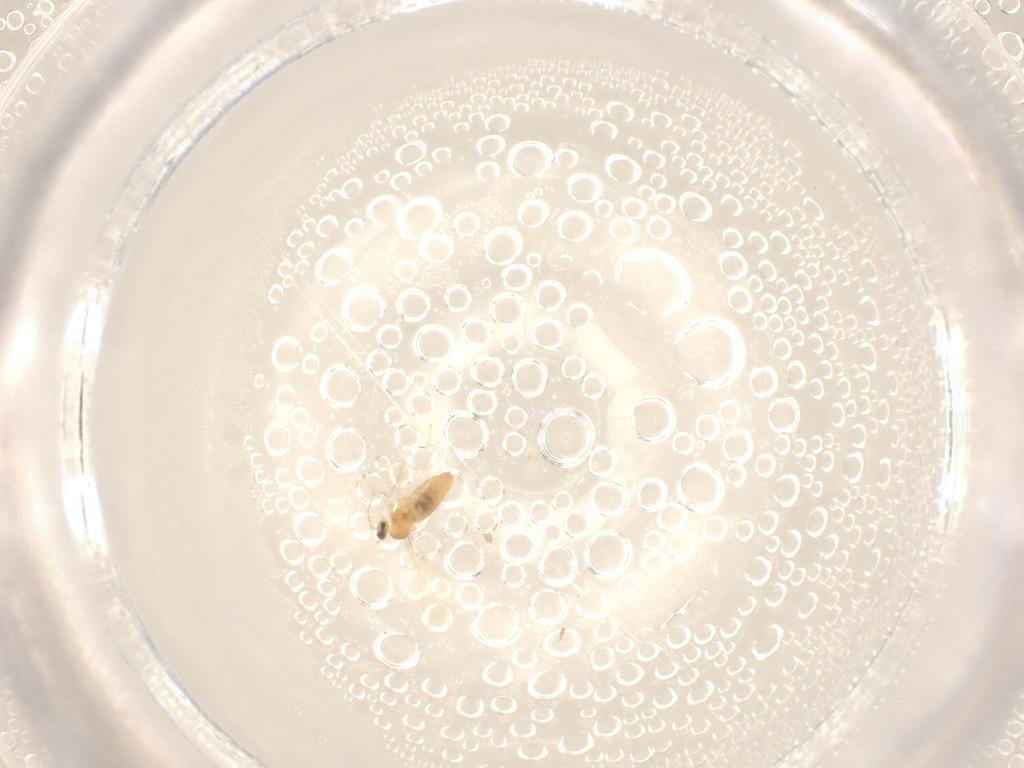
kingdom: Animalia
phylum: Arthropoda
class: Insecta
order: Diptera
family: Cecidomyiidae
